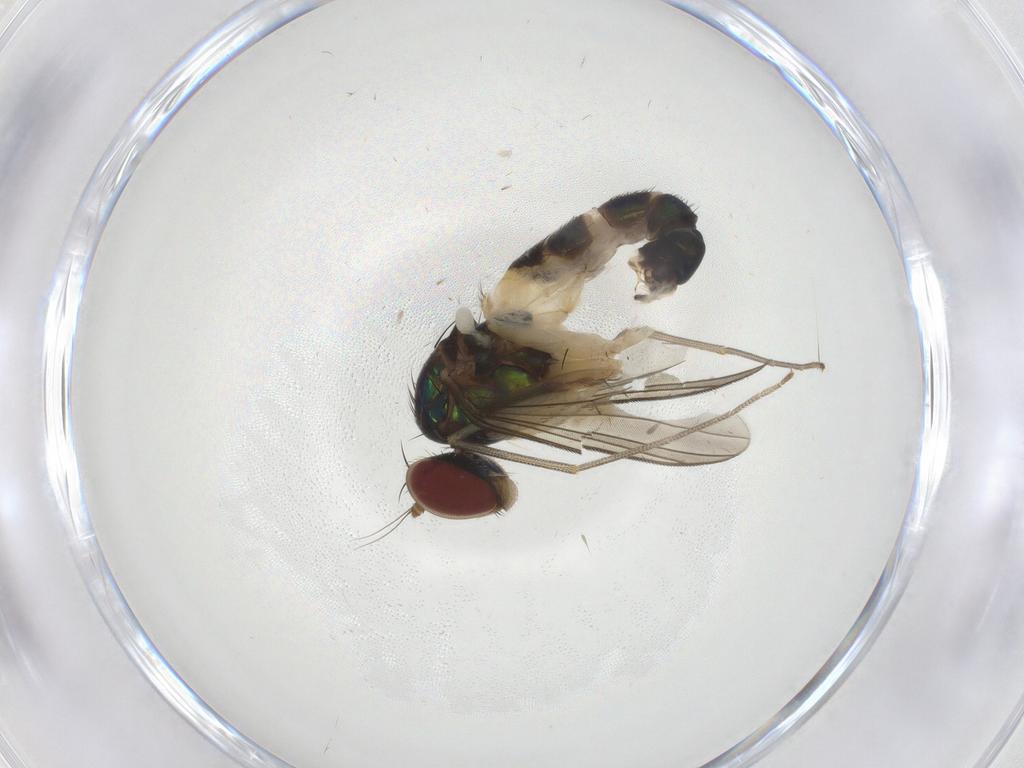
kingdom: Animalia
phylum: Arthropoda
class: Insecta
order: Diptera
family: Chironomidae
